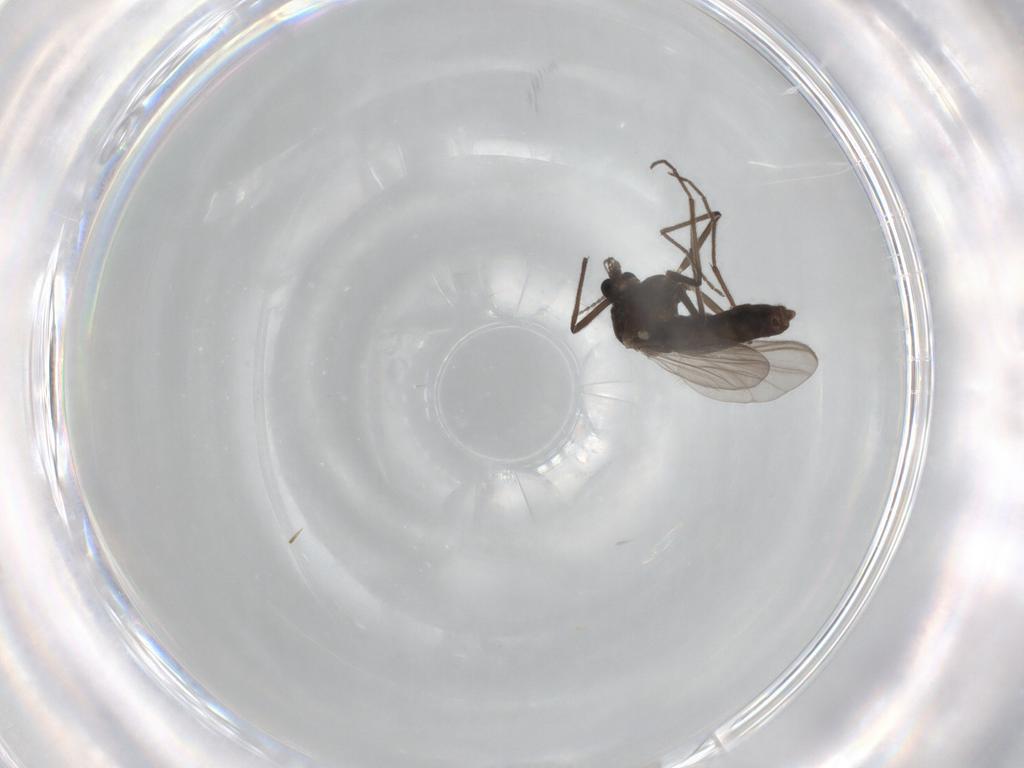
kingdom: Animalia
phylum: Arthropoda
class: Insecta
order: Diptera
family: Chironomidae
